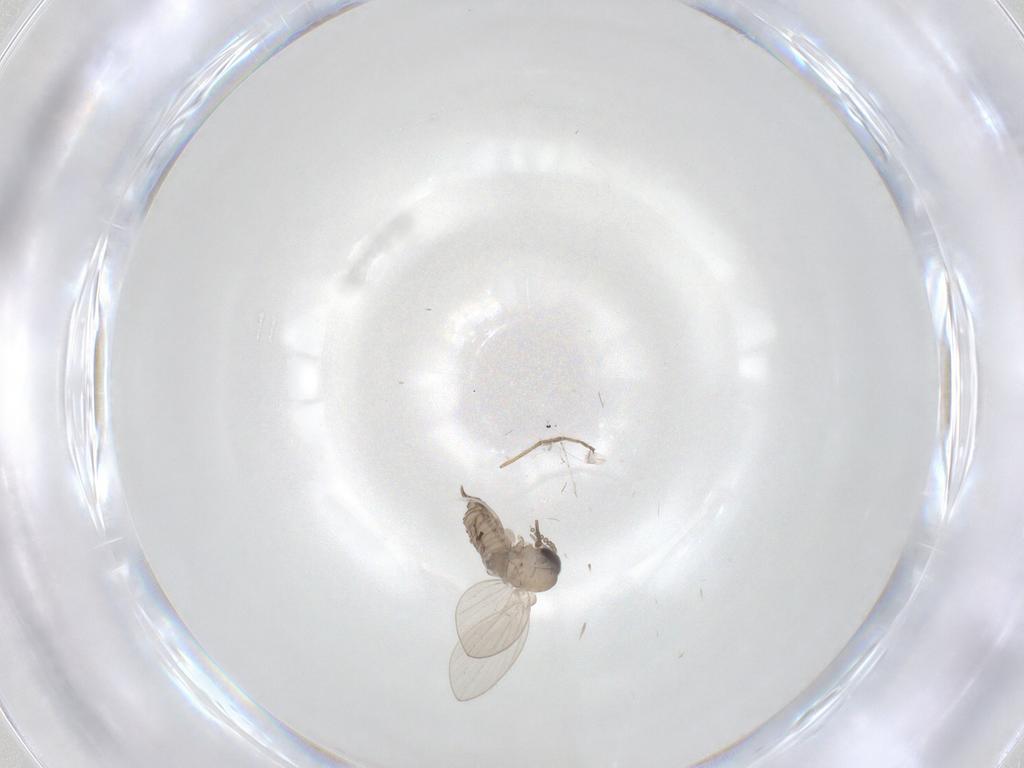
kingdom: Animalia
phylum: Arthropoda
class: Insecta
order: Diptera
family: Psychodidae
